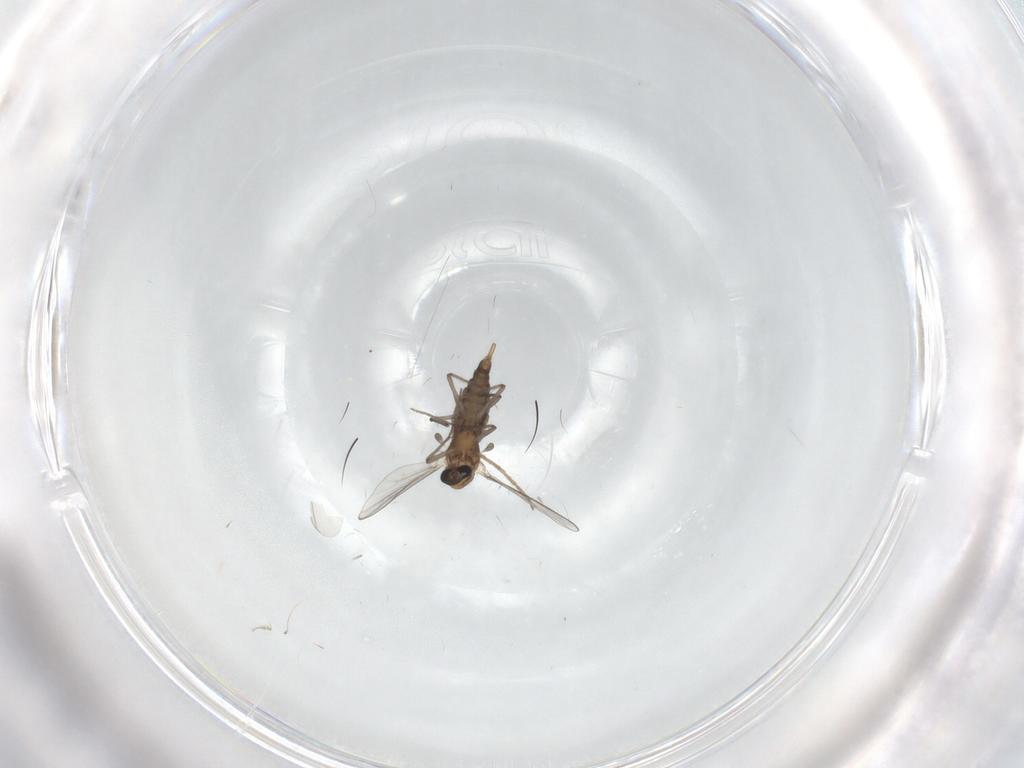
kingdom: Animalia
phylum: Arthropoda
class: Insecta
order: Diptera
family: Chironomidae
